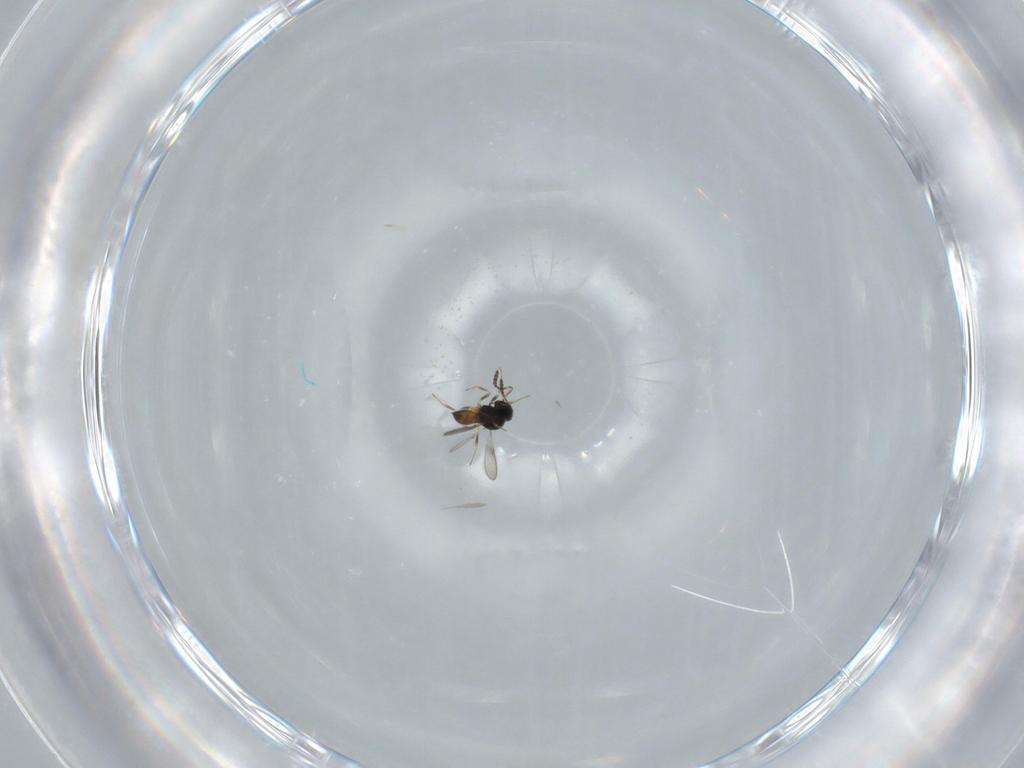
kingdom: Animalia
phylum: Arthropoda
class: Insecta
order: Hymenoptera
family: Scelionidae
